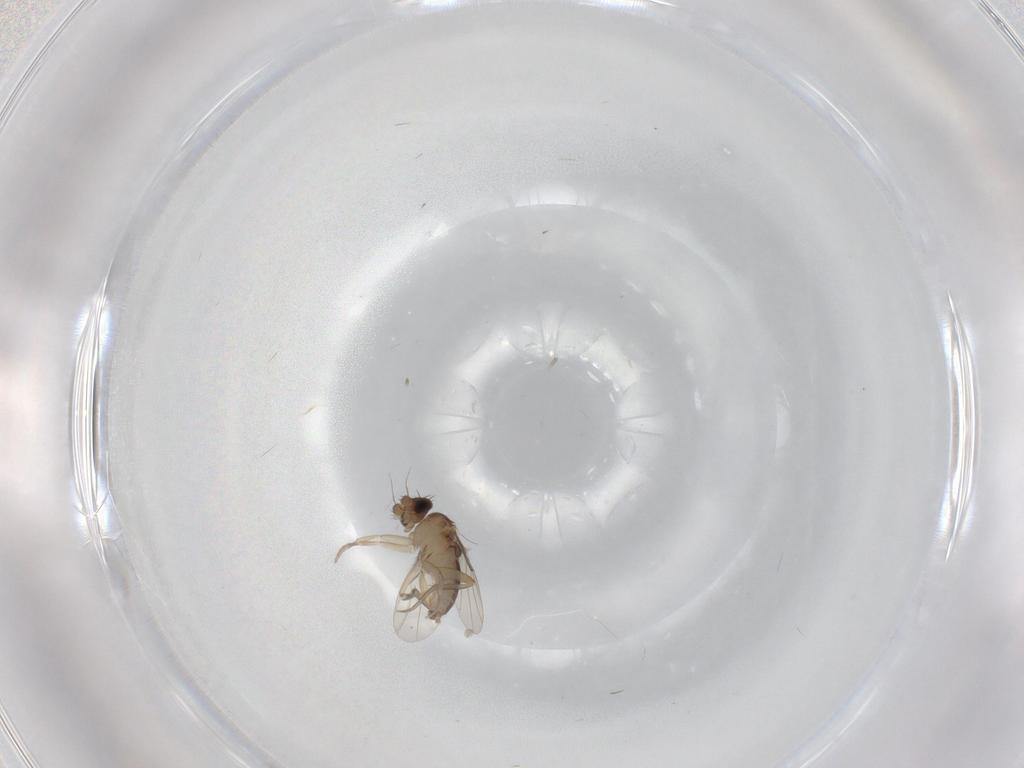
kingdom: Animalia
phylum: Arthropoda
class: Insecta
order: Diptera
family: Phoridae
